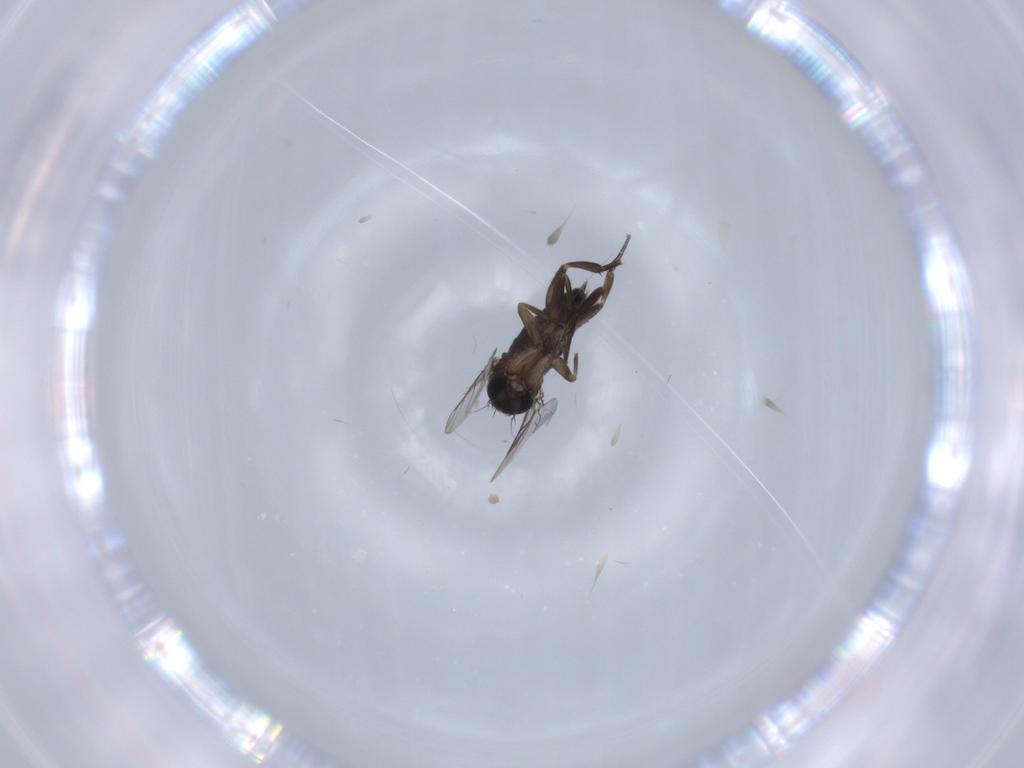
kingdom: Animalia
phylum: Arthropoda
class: Insecta
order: Diptera
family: Phoridae
